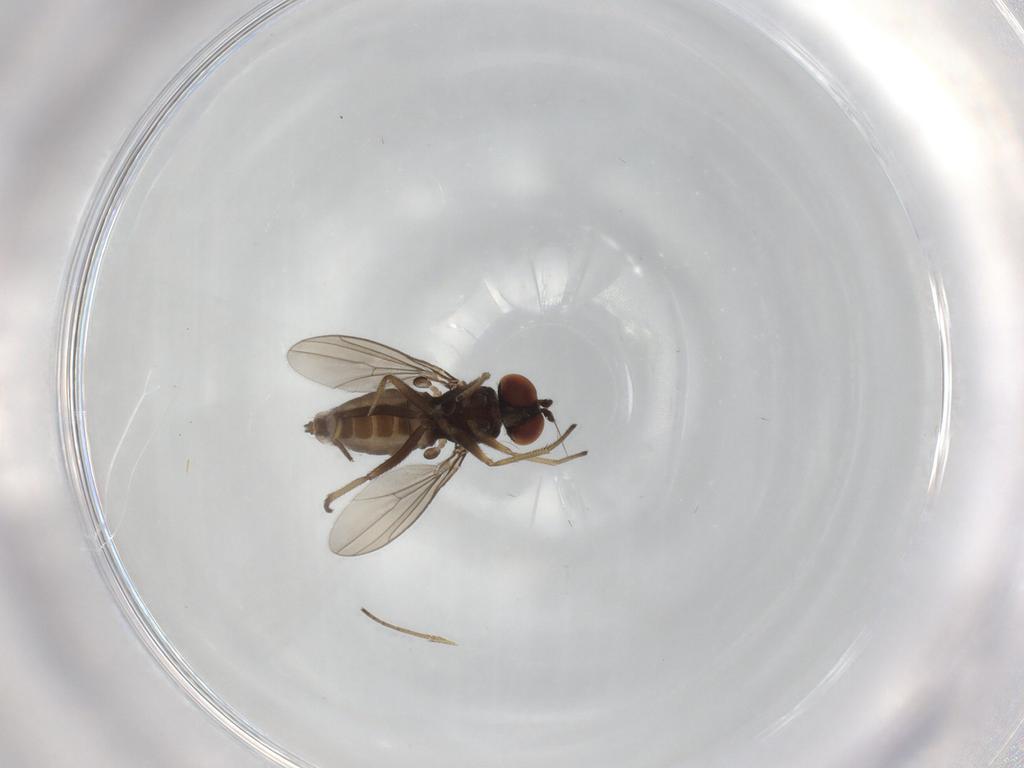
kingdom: Animalia
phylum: Arthropoda
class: Insecta
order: Diptera
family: Dolichopodidae
